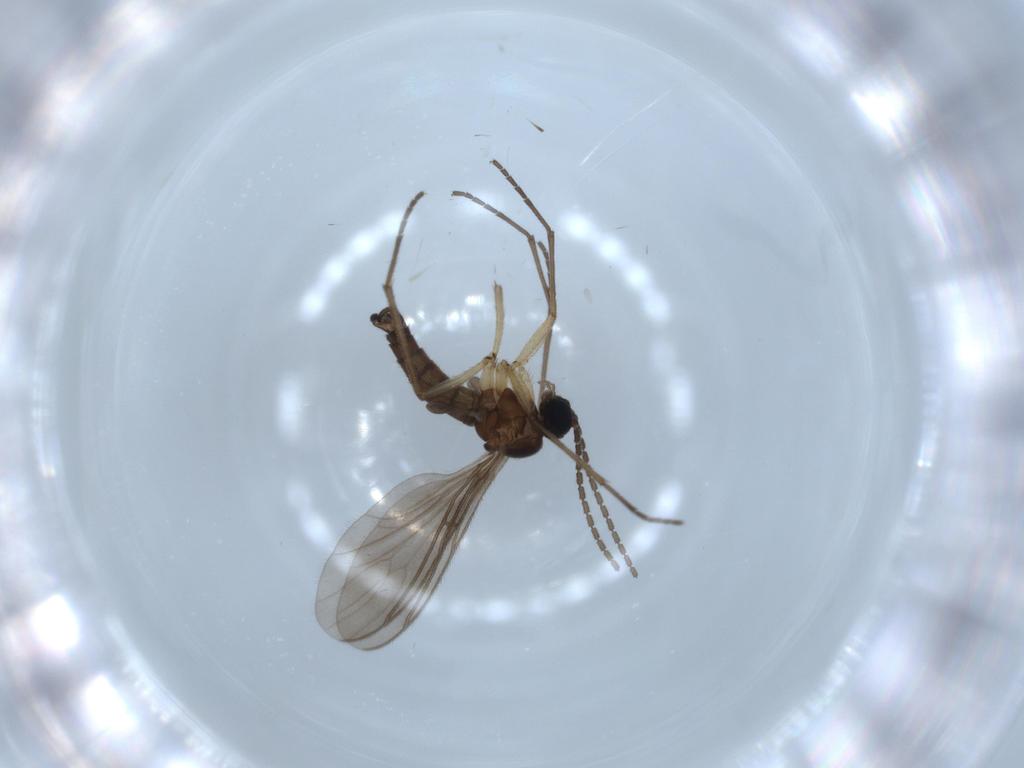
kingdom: Animalia
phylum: Arthropoda
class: Insecta
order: Diptera
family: Sciaridae
